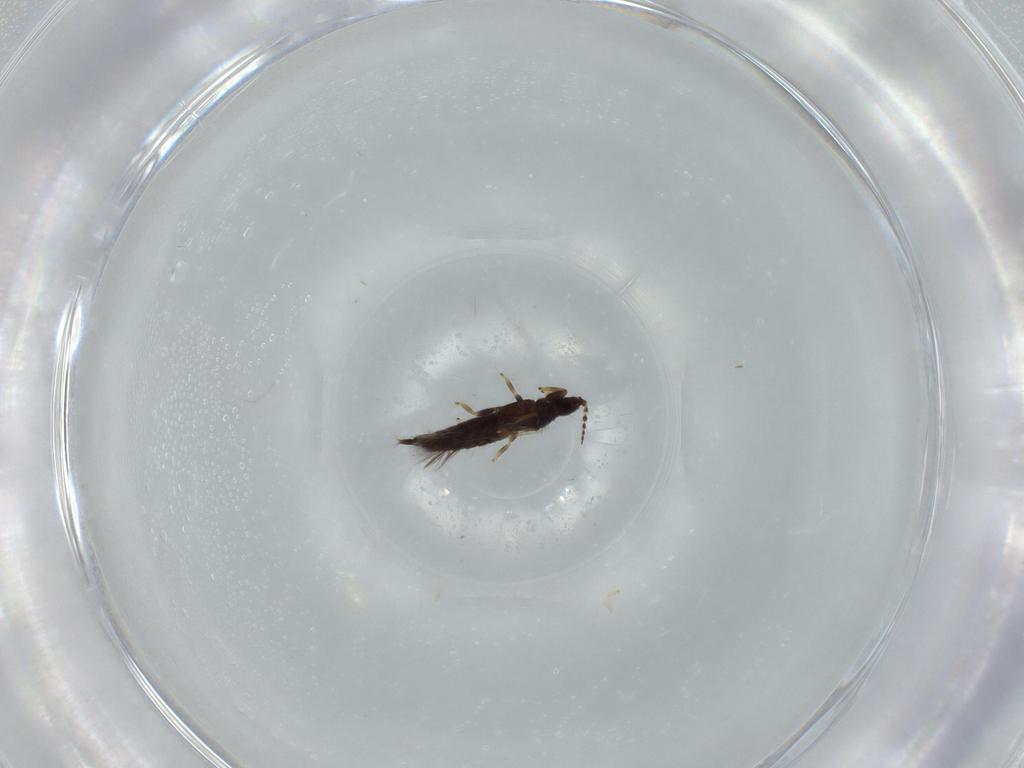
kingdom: Animalia
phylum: Arthropoda
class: Insecta
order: Thysanoptera
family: Phlaeothripidae
